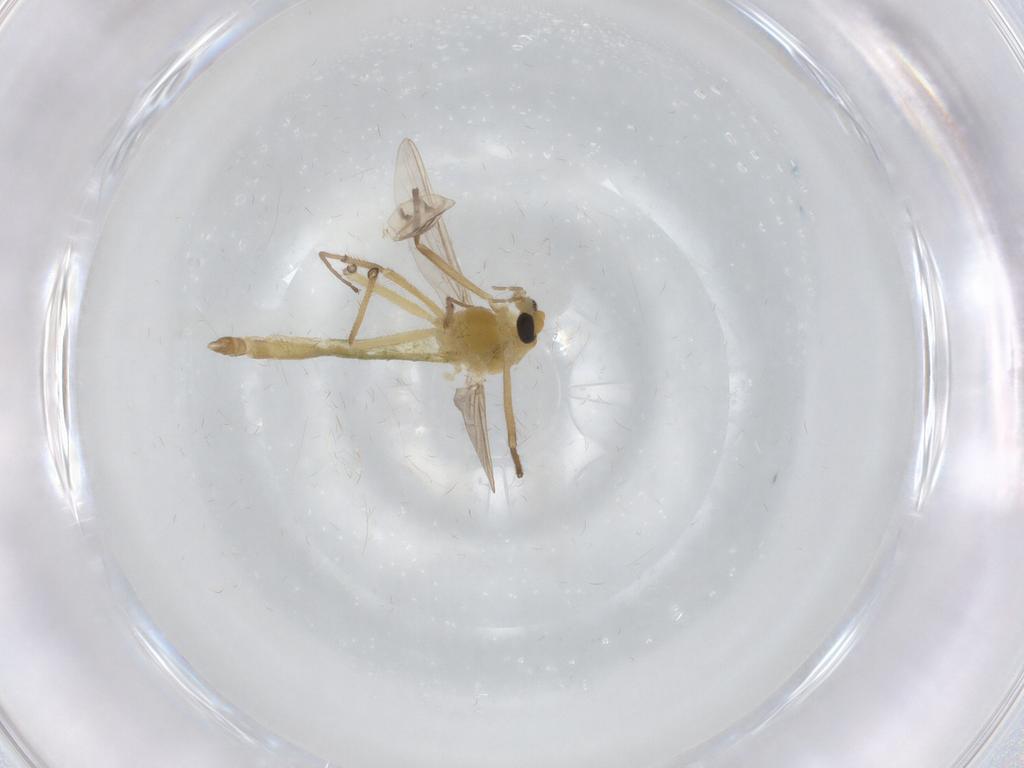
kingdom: Animalia
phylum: Arthropoda
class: Insecta
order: Diptera
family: Chironomidae
